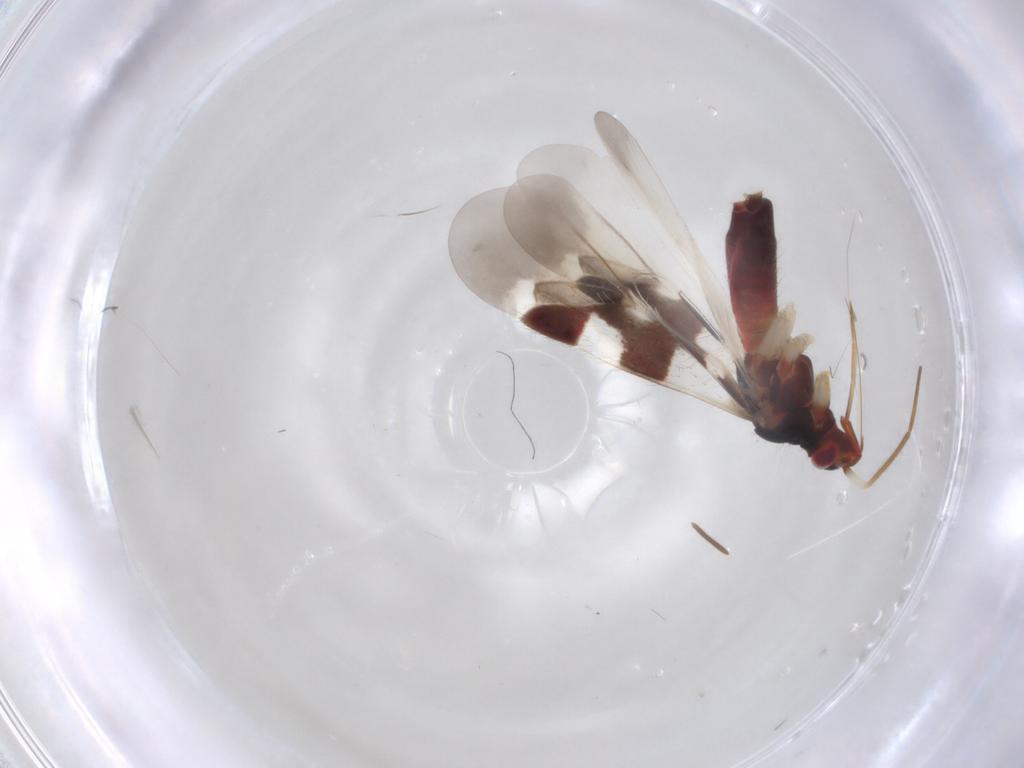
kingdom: Animalia
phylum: Arthropoda
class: Insecta
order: Hemiptera
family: Miridae
